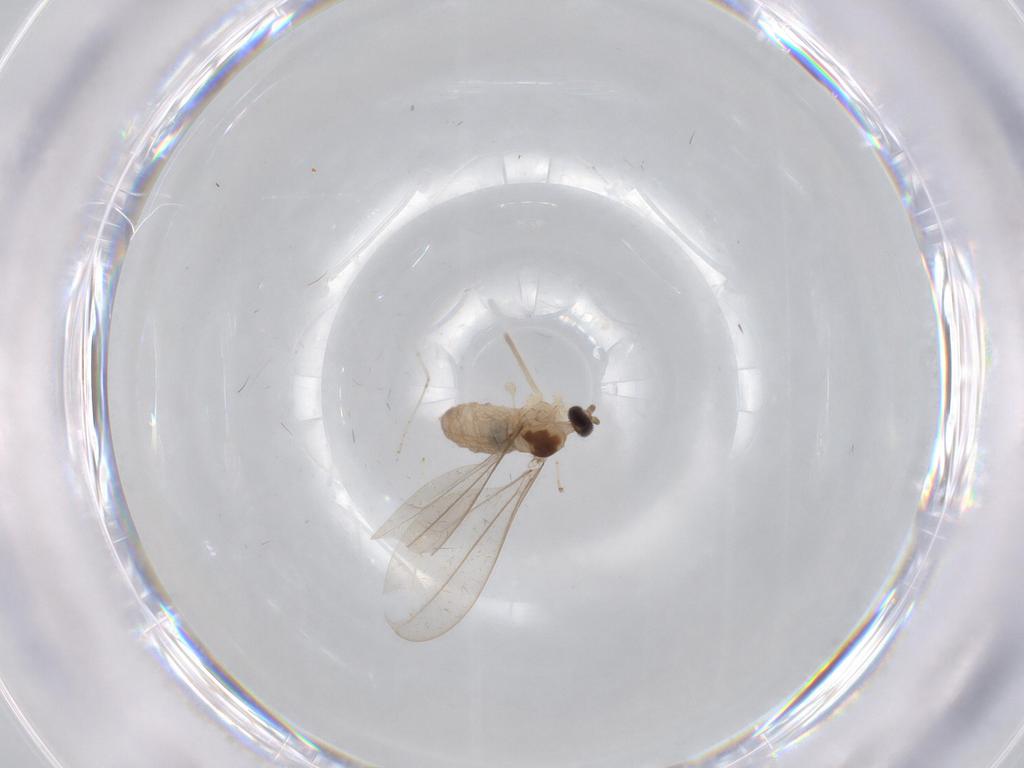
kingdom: Animalia
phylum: Arthropoda
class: Insecta
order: Diptera
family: Cecidomyiidae
